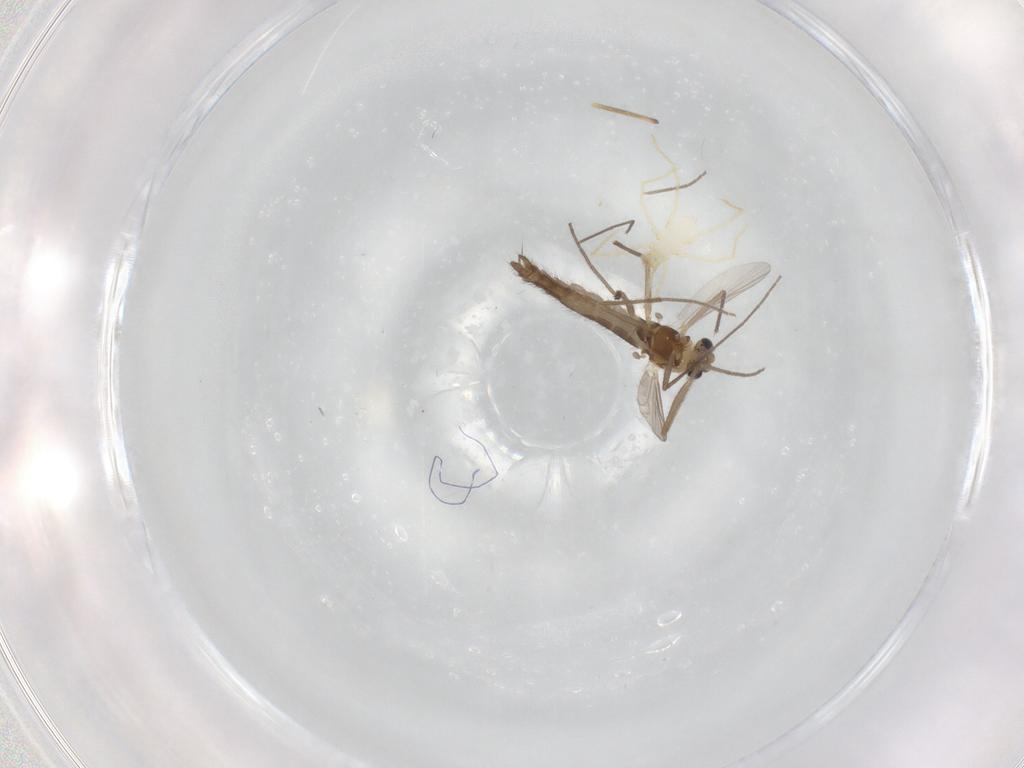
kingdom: Animalia
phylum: Arthropoda
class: Insecta
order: Diptera
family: Chironomidae
